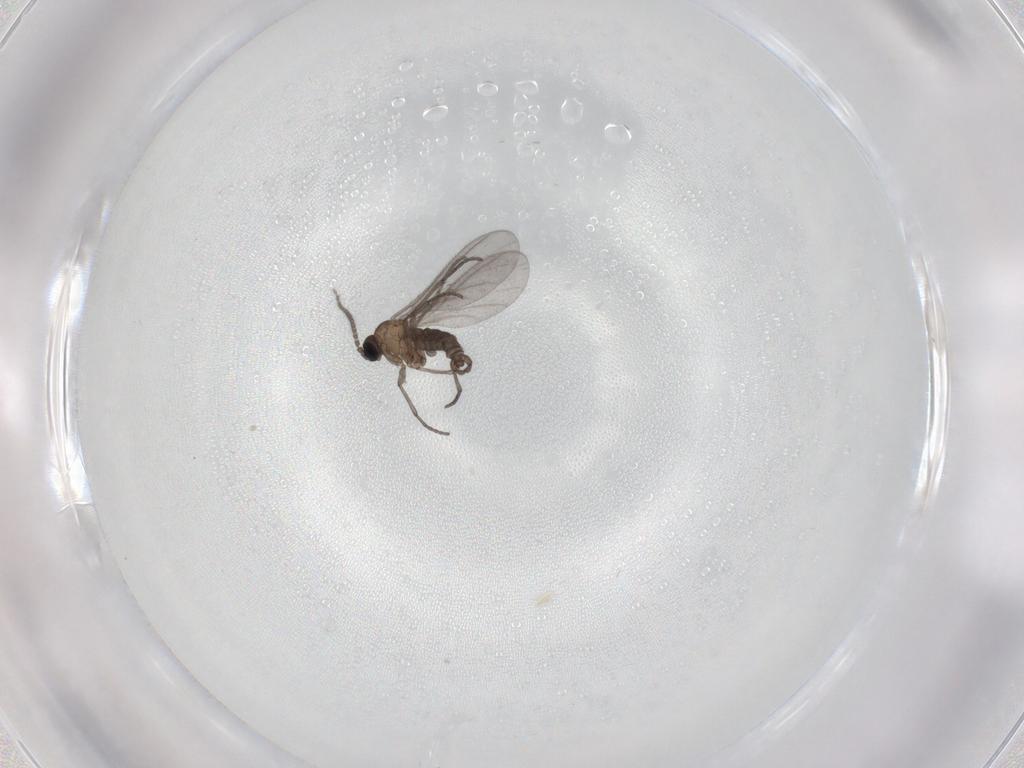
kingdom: Animalia
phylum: Arthropoda
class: Insecta
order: Diptera
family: Sciaridae
